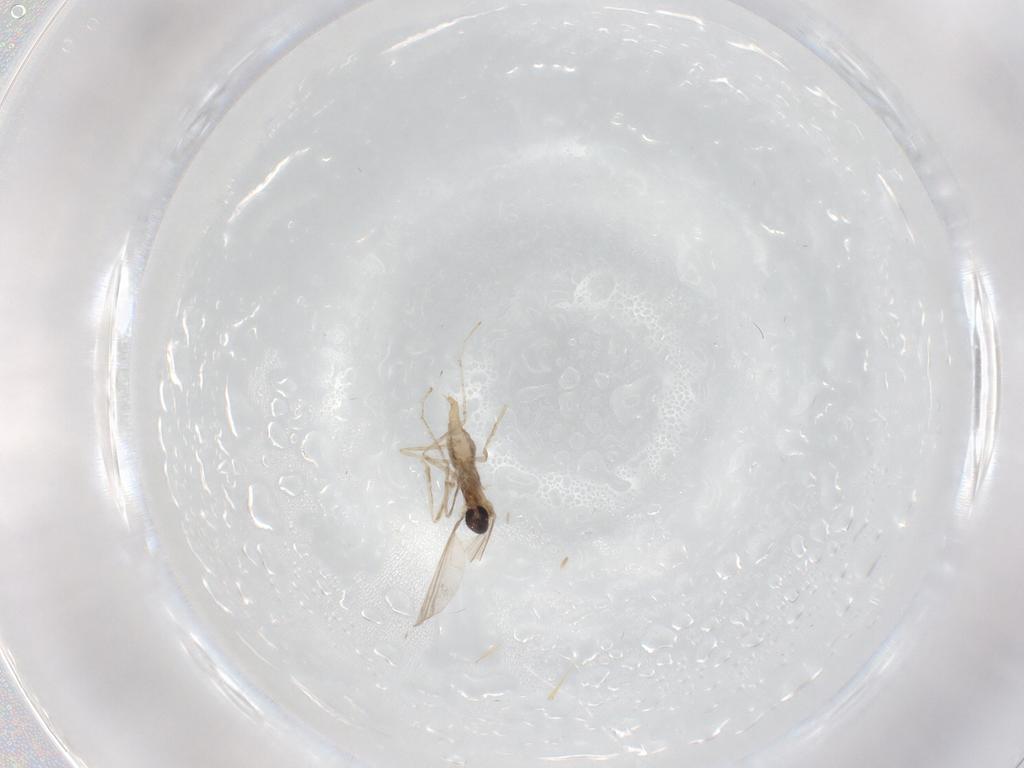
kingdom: Animalia
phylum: Arthropoda
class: Insecta
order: Diptera
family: Cecidomyiidae
